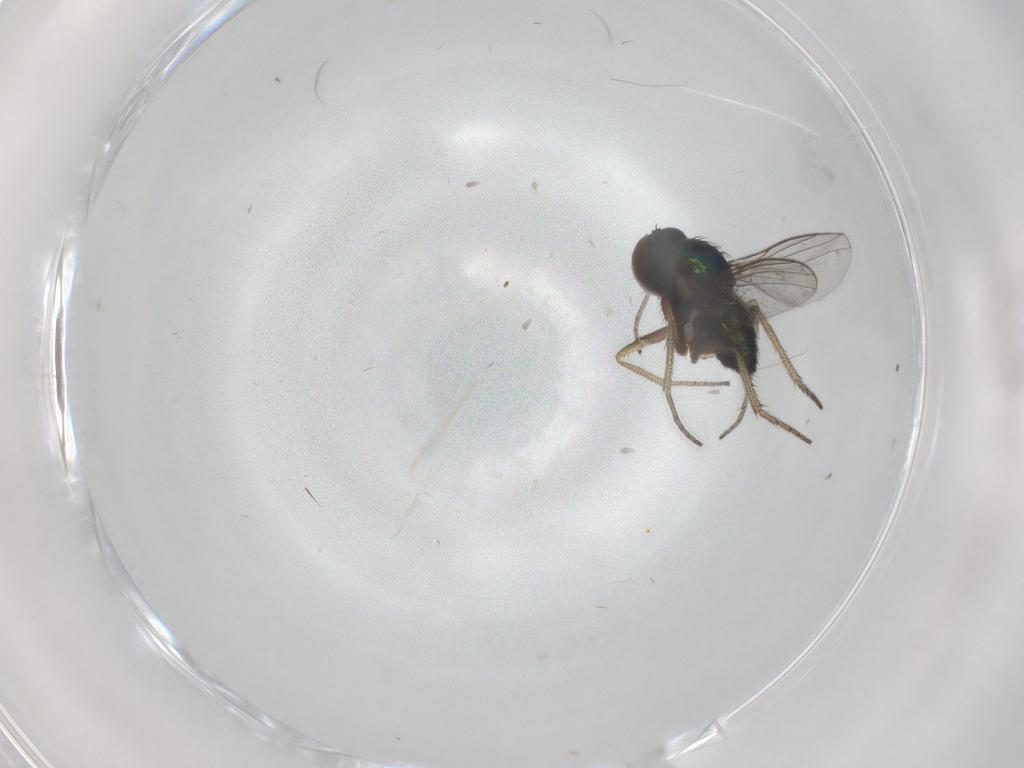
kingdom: Animalia
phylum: Arthropoda
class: Insecta
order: Diptera
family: Dolichopodidae
